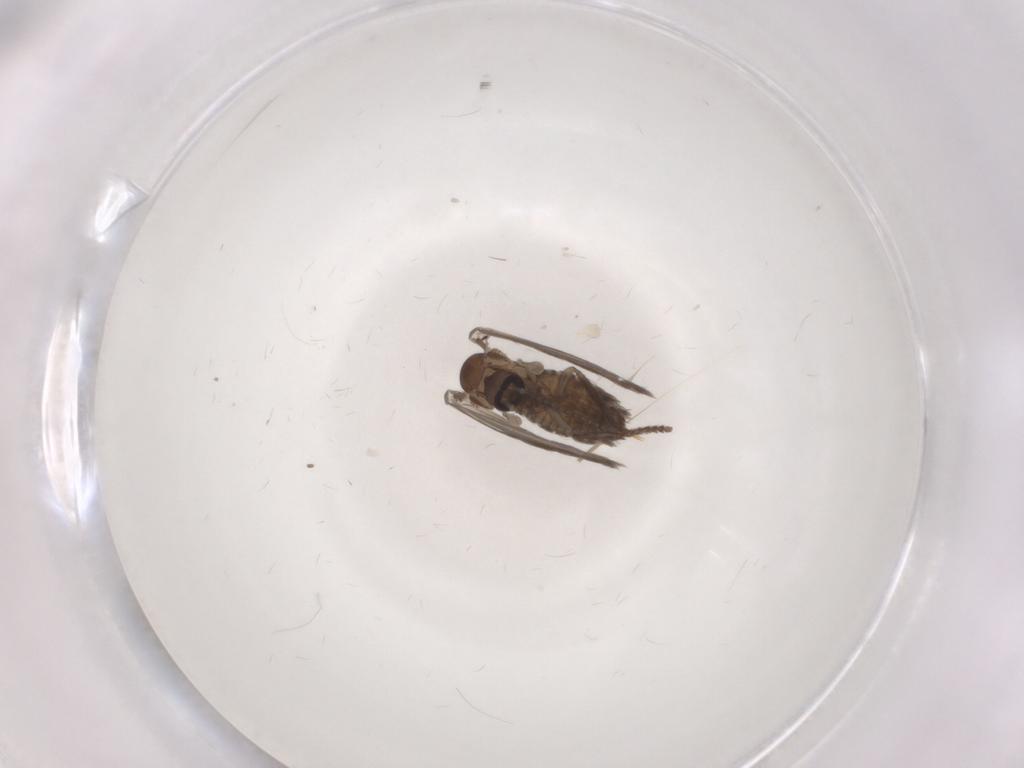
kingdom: Animalia
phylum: Arthropoda
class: Insecta
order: Diptera
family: Psychodidae
